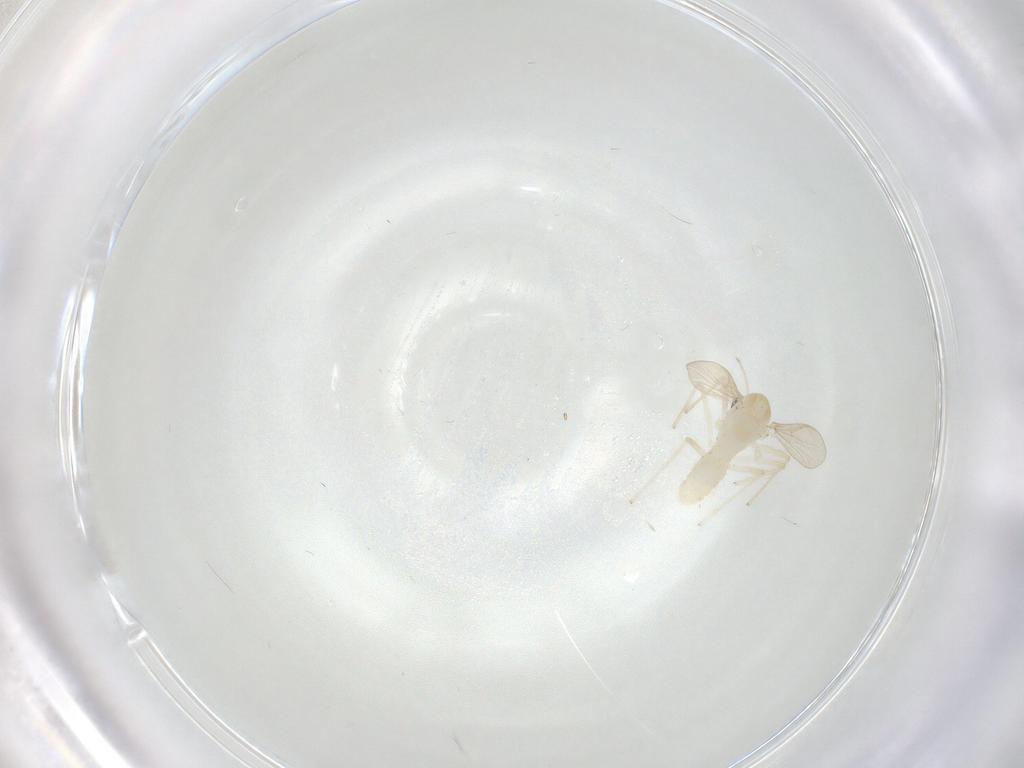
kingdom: Animalia
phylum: Arthropoda
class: Insecta
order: Diptera
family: Chironomidae
